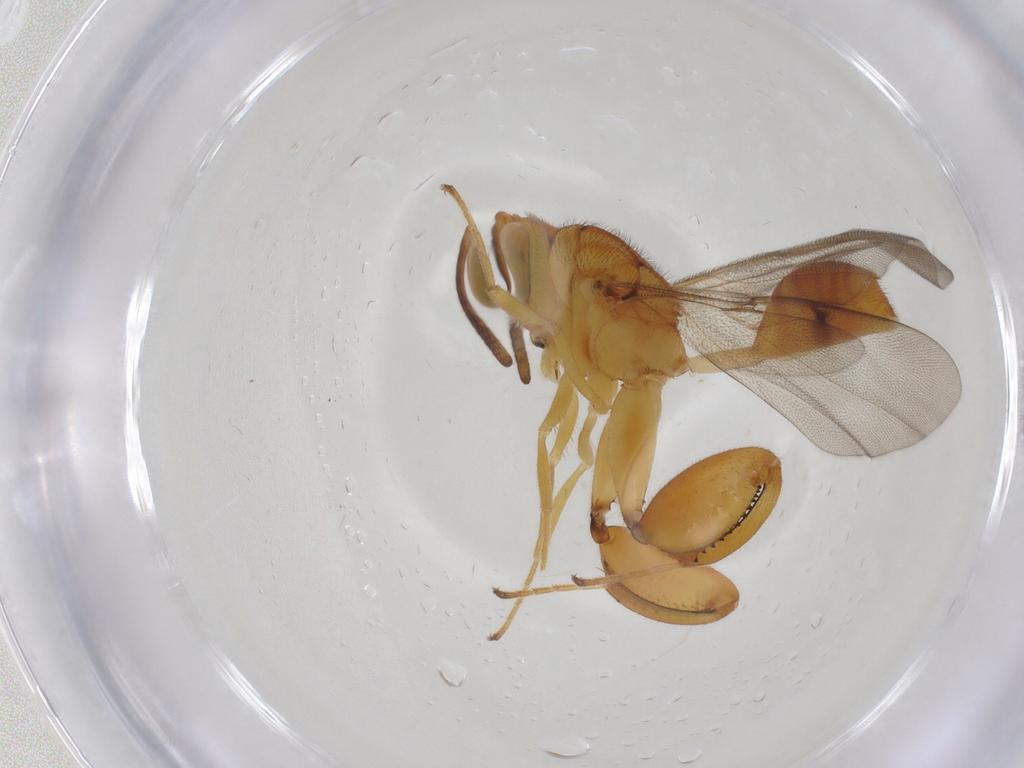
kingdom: Animalia
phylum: Arthropoda
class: Insecta
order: Hymenoptera
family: Chalcididae
